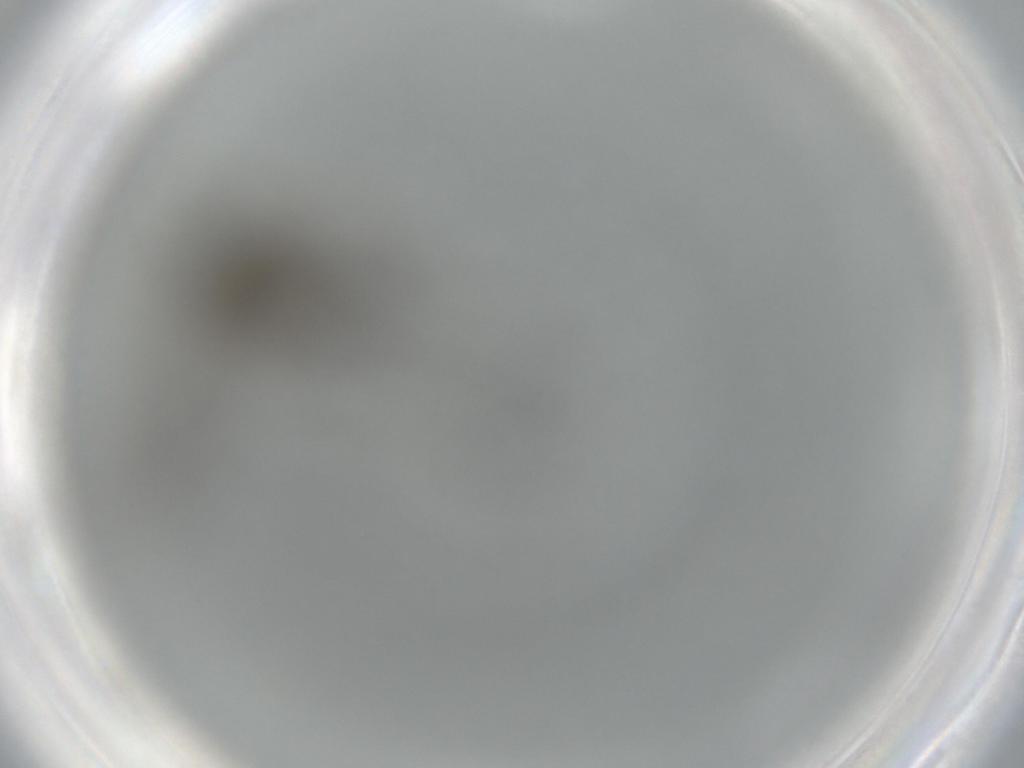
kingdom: Animalia
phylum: Arthropoda
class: Insecta
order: Diptera
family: Sciaridae
